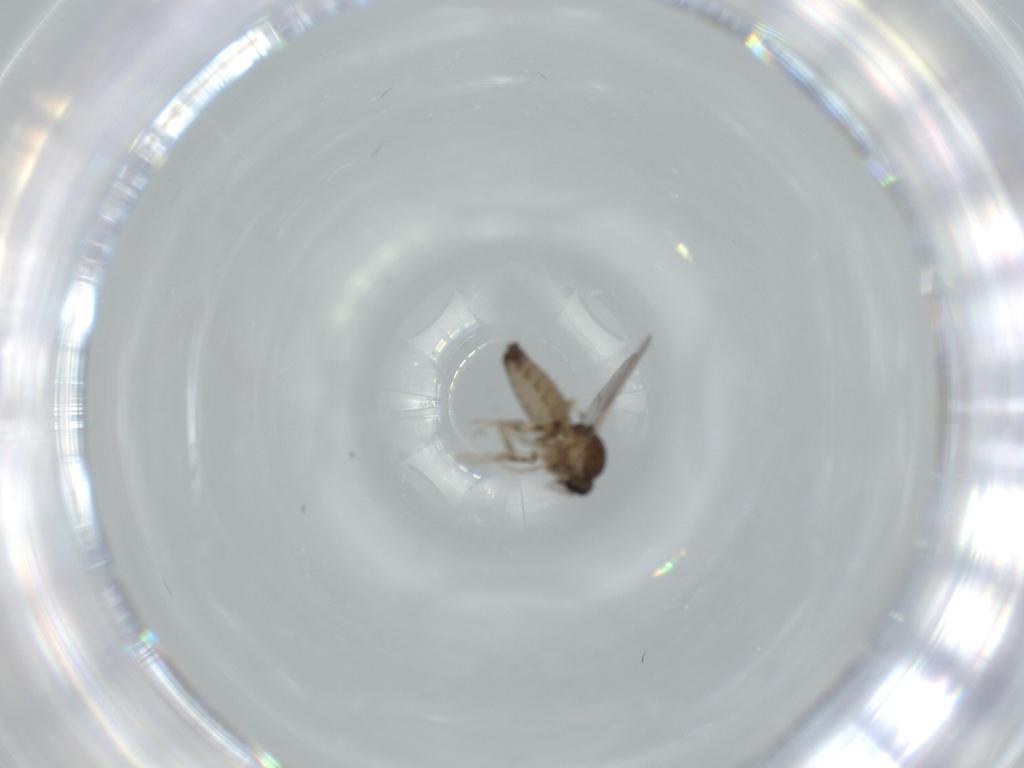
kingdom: Animalia
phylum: Arthropoda
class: Insecta
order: Diptera
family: Ceratopogonidae
